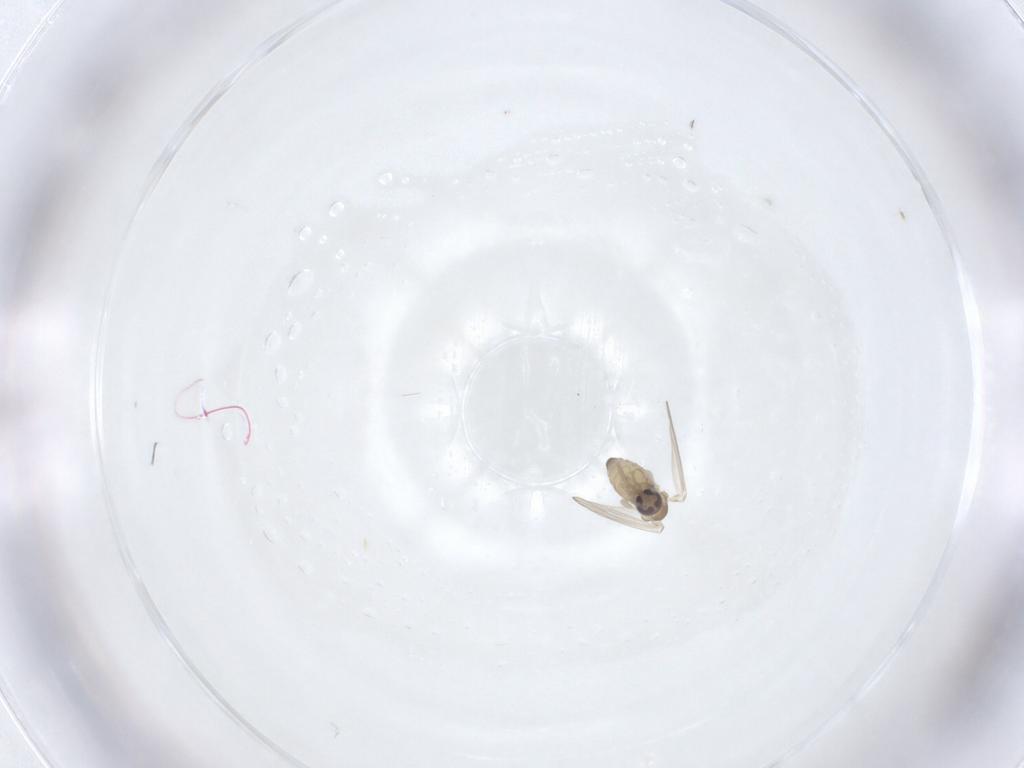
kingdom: Animalia
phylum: Arthropoda
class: Insecta
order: Diptera
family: Psychodidae
